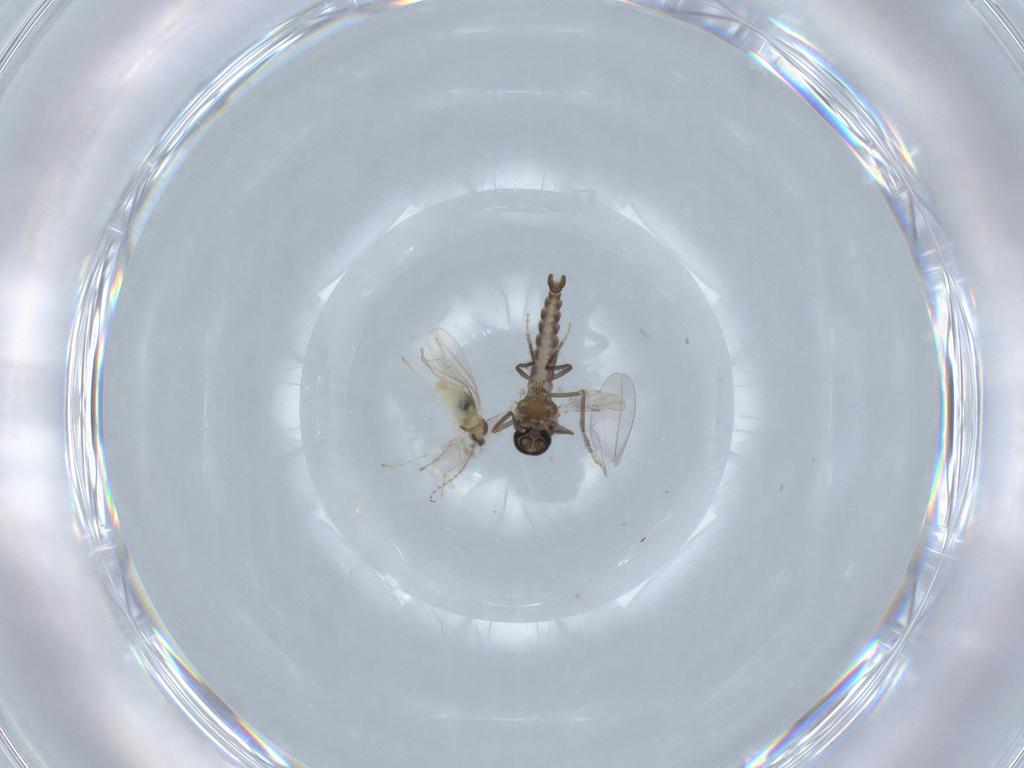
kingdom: Animalia
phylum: Arthropoda
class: Insecta
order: Diptera
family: Ceratopogonidae
